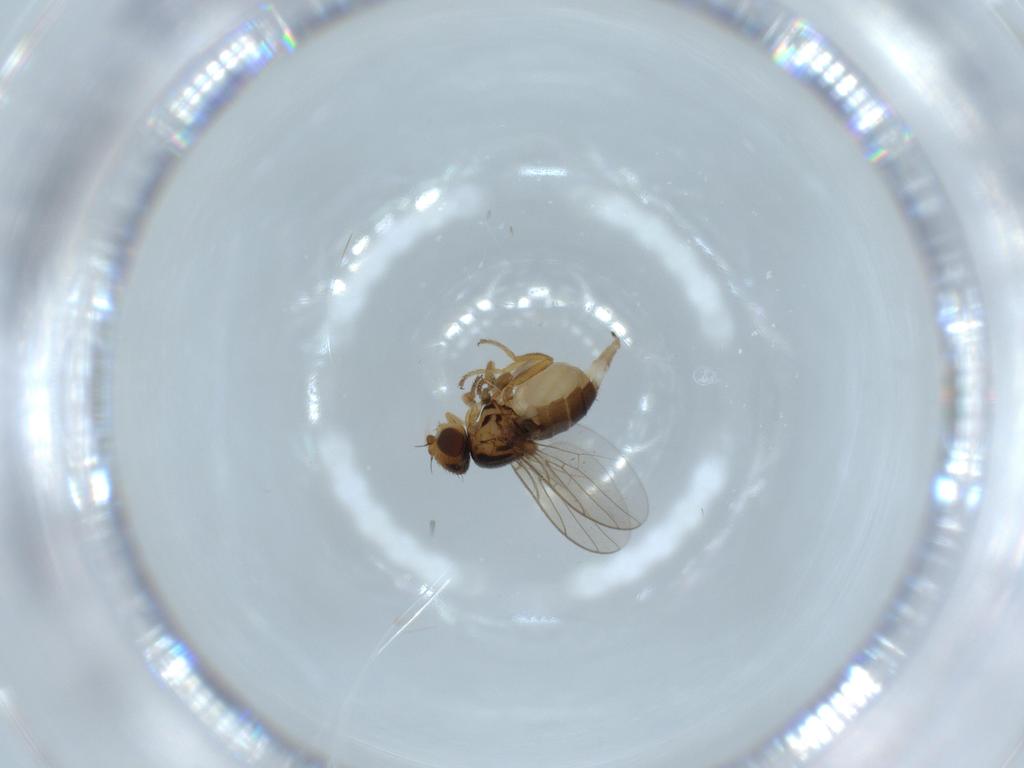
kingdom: Animalia
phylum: Arthropoda
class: Insecta
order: Diptera
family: Chloropidae
